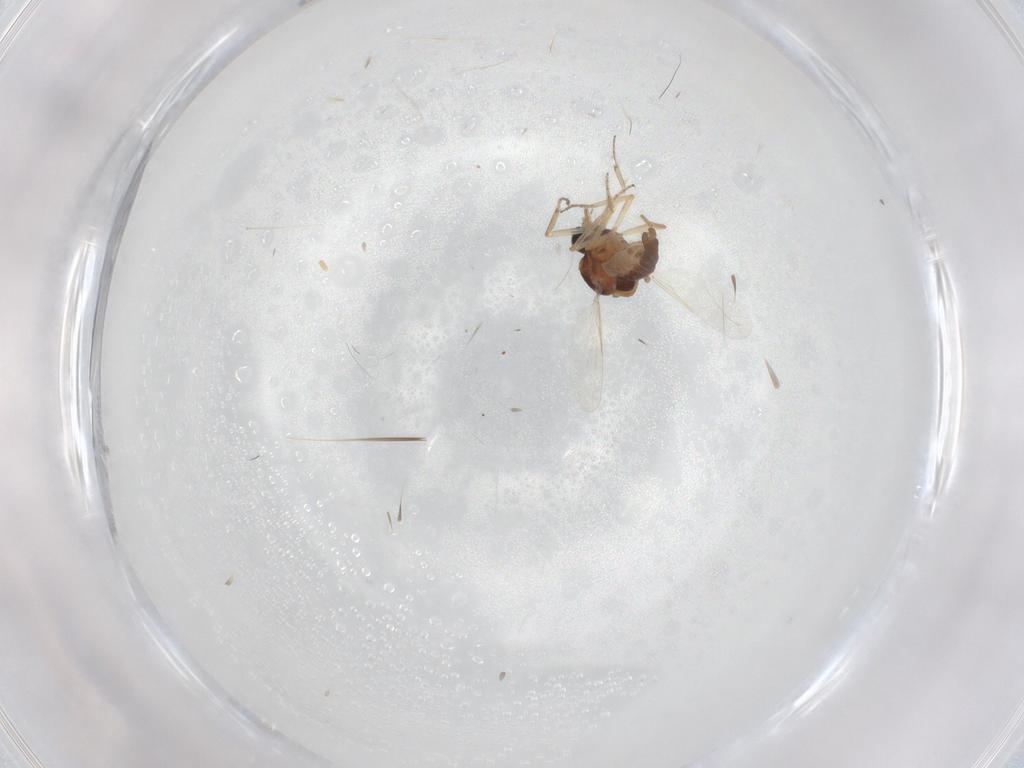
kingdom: Animalia
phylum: Arthropoda
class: Insecta
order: Diptera
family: Ceratopogonidae
